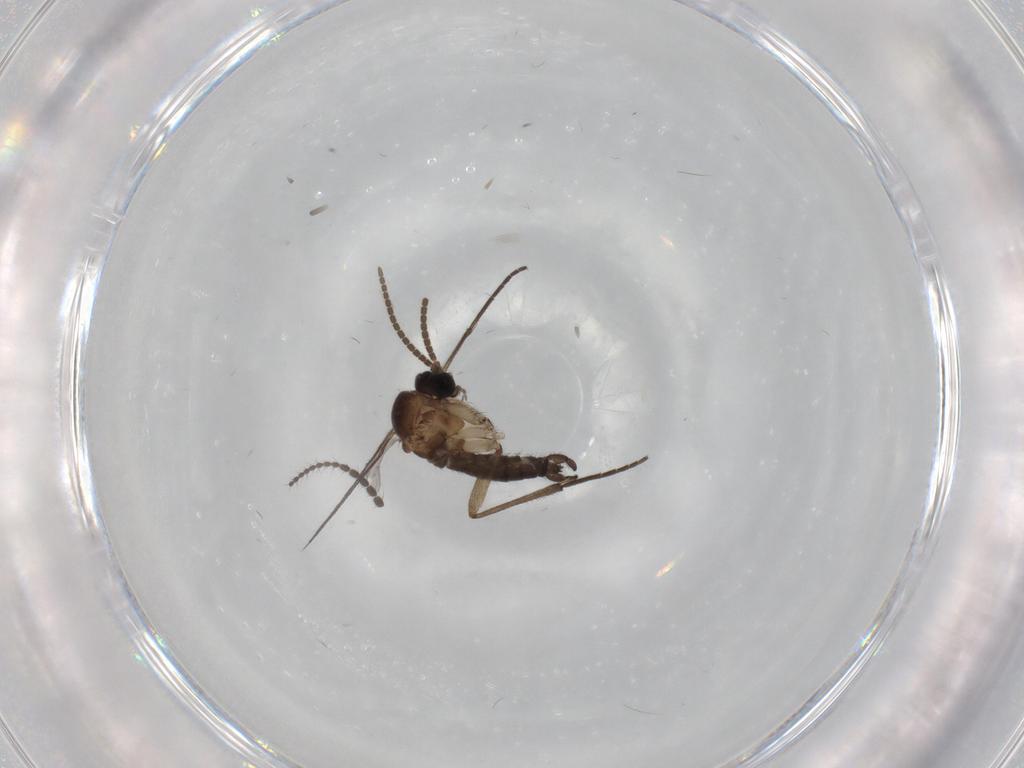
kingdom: Animalia
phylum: Arthropoda
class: Insecta
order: Diptera
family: Limoniidae
